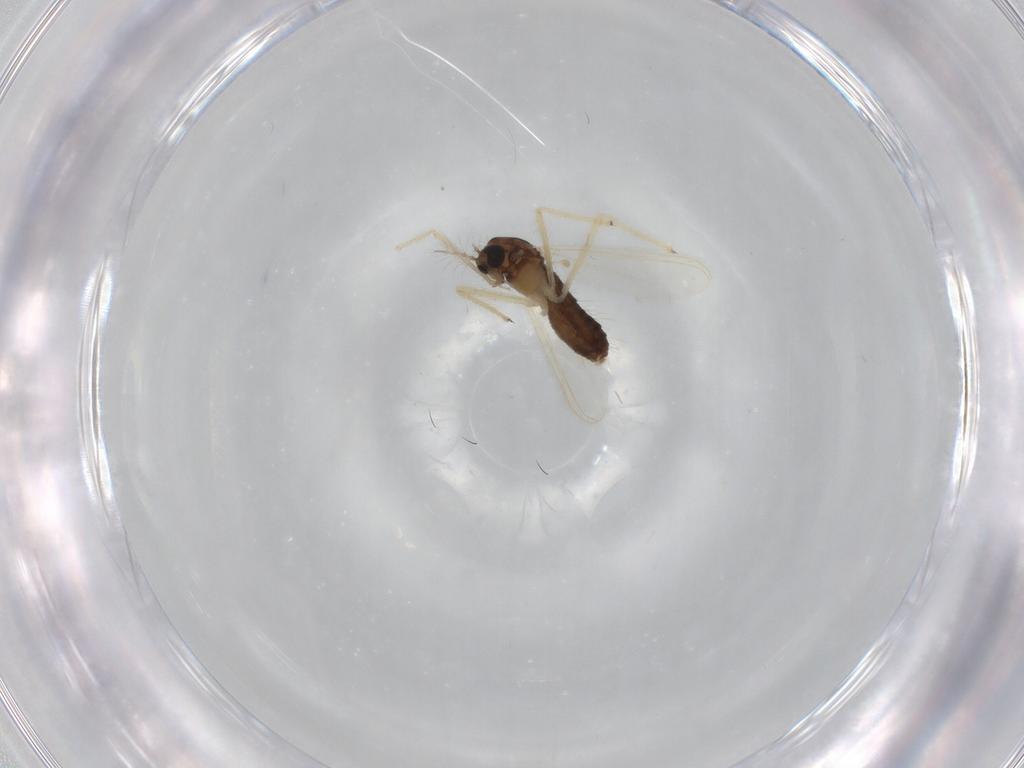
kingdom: Animalia
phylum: Arthropoda
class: Insecta
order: Diptera
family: Chironomidae
